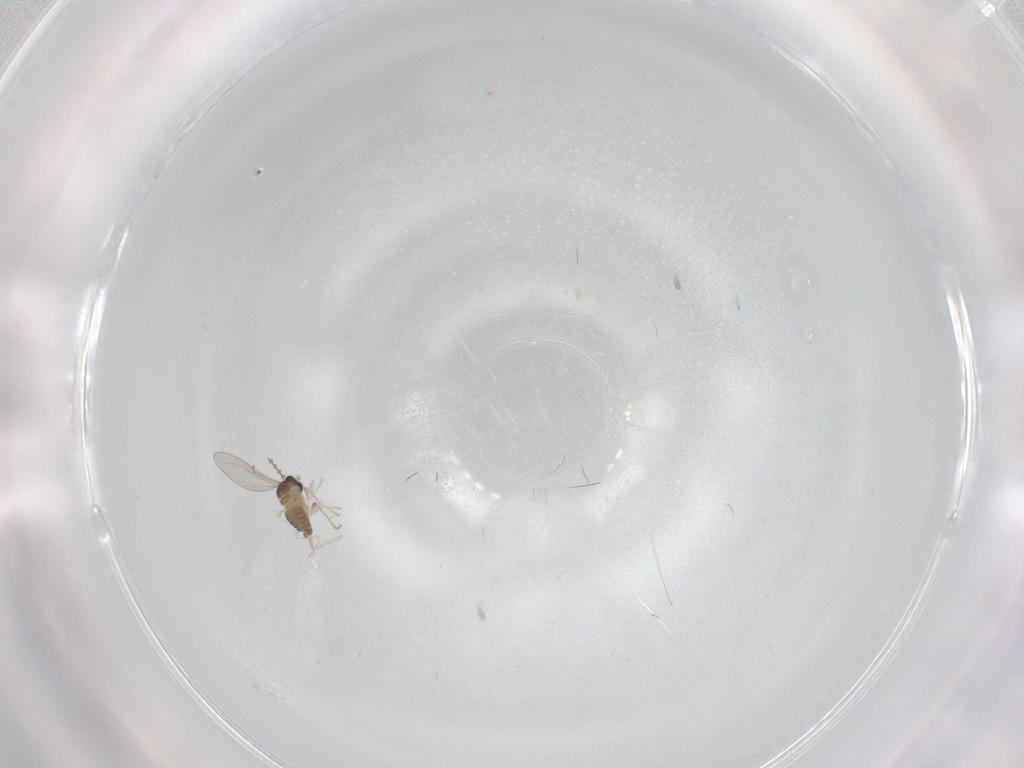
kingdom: Animalia
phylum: Arthropoda
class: Insecta
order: Diptera
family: Cecidomyiidae
